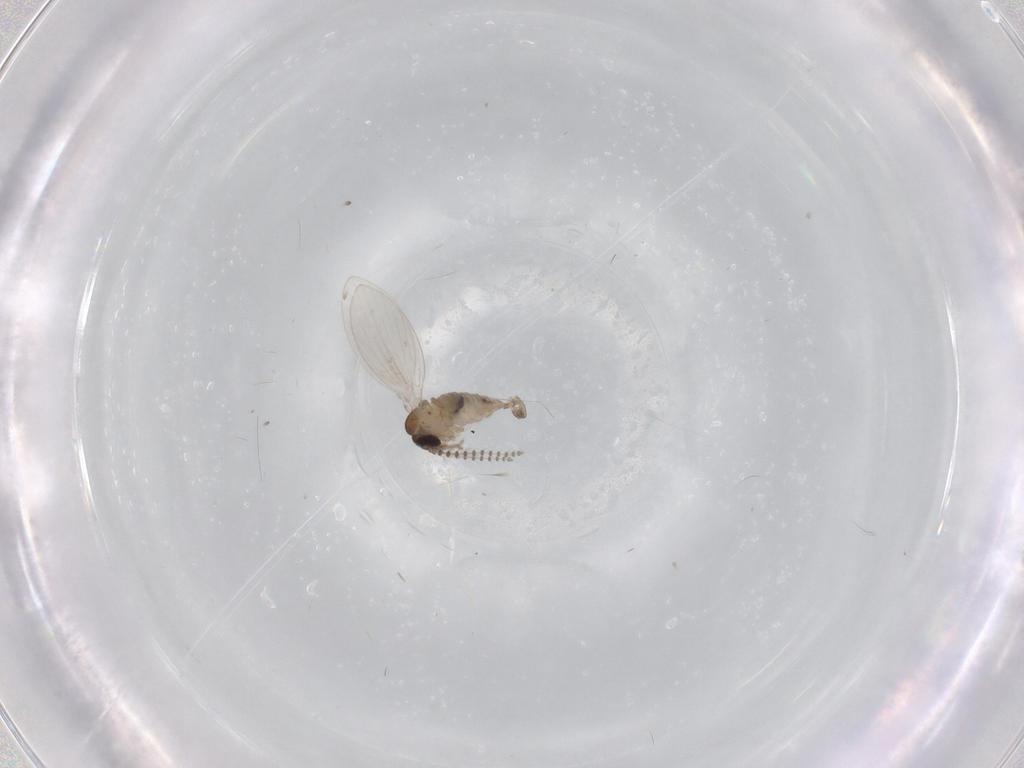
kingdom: Animalia
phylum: Arthropoda
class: Insecta
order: Diptera
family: Psychodidae
